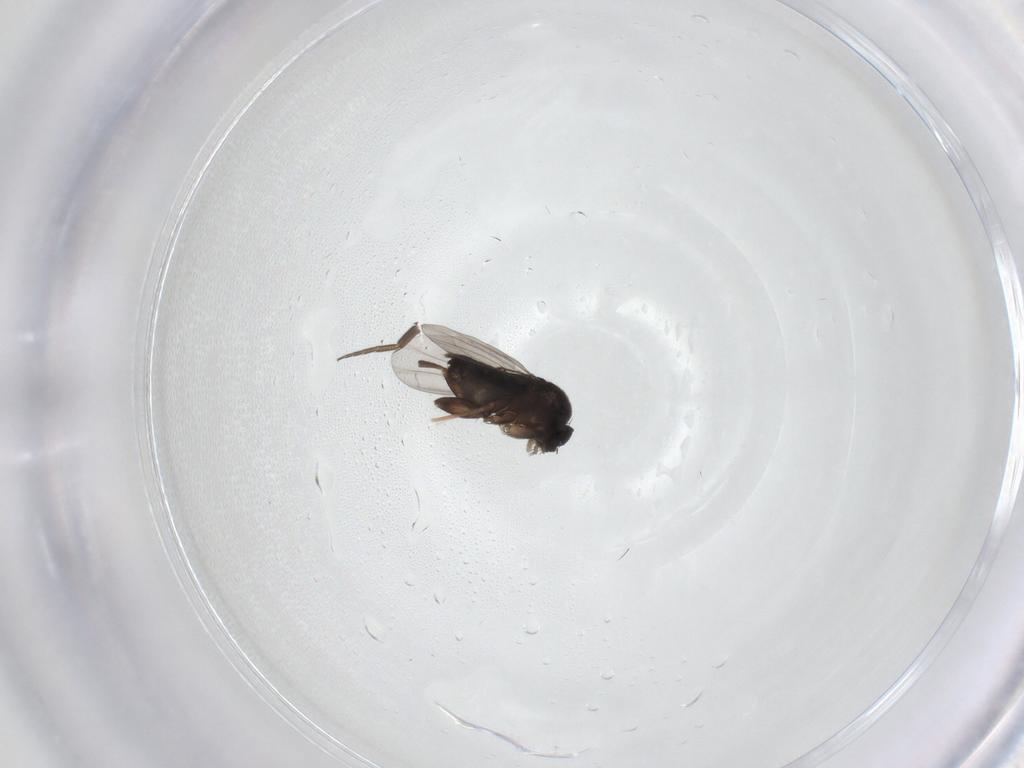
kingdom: Animalia
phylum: Arthropoda
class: Insecta
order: Diptera
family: Phoridae
